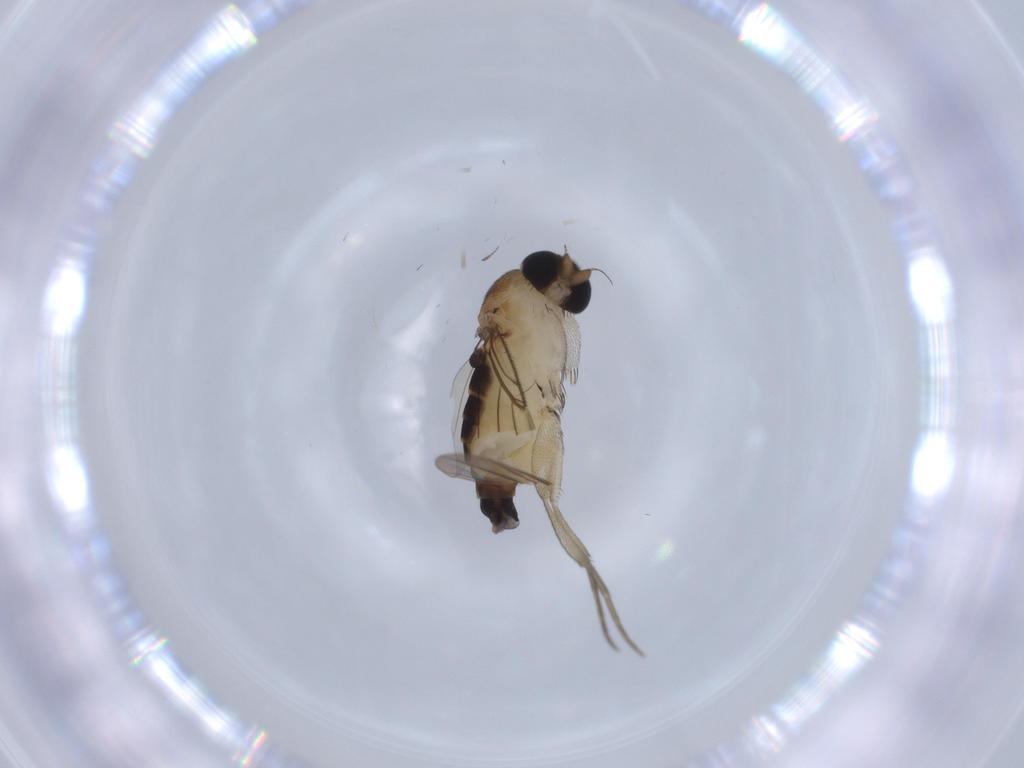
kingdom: Animalia
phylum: Arthropoda
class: Insecta
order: Diptera
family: Phoridae
